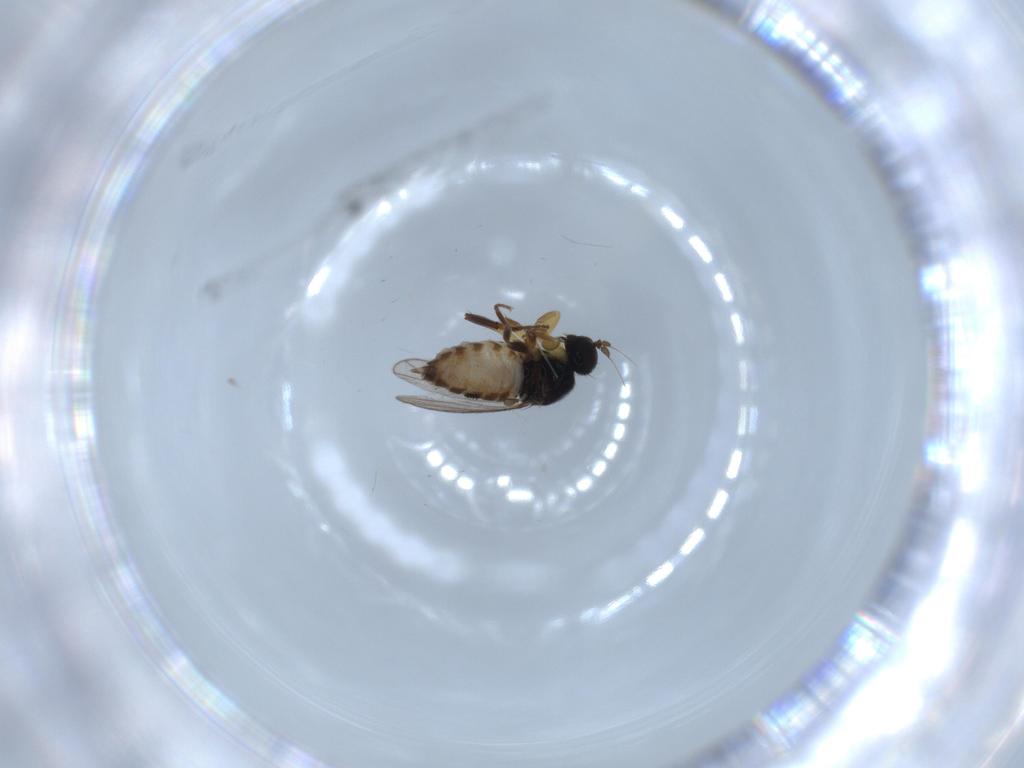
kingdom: Animalia
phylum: Arthropoda
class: Insecta
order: Diptera
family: Hybotidae
